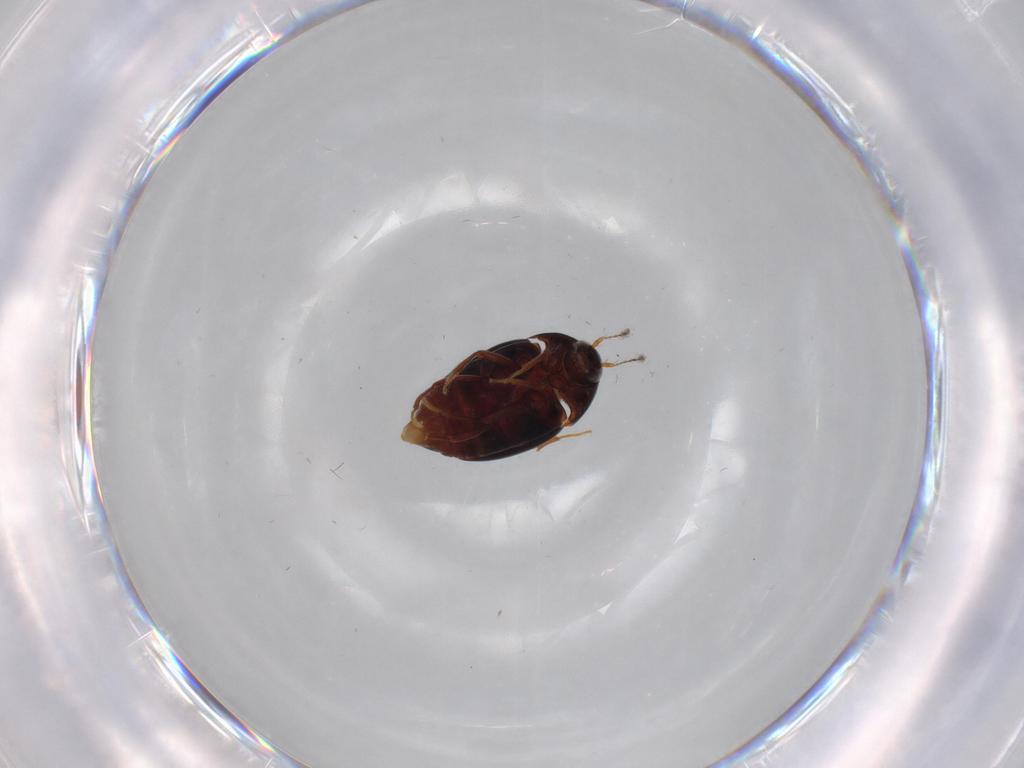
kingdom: Animalia
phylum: Arthropoda
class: Insecta
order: Coleoptera
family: Staphylinidae
